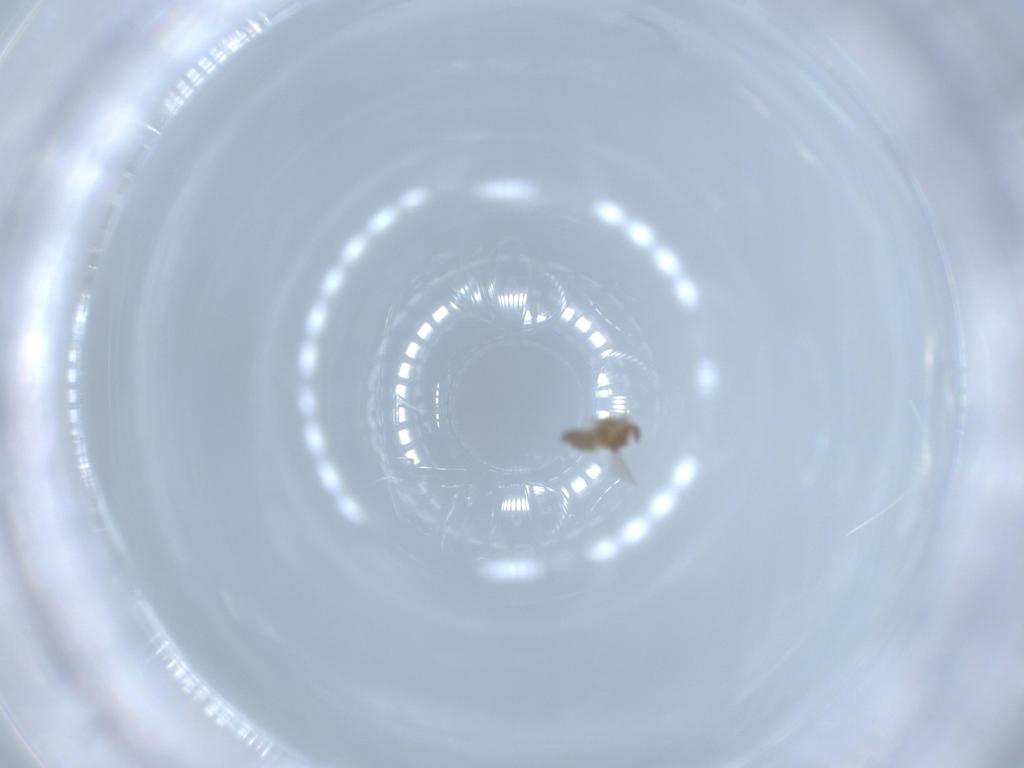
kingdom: Animalia
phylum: Arthropoda
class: Insecta
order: Diptera
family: Cecidomyiidae
